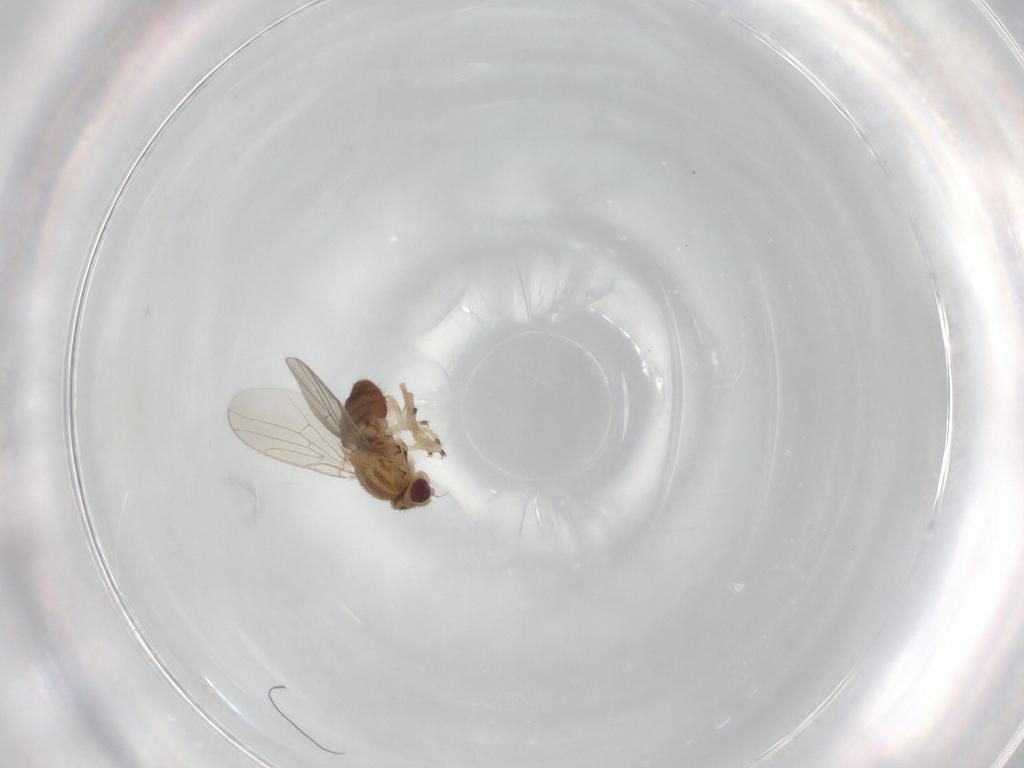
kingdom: Animalia
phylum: Arthropoda
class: Insecta
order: Diptera
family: Chloropidae
